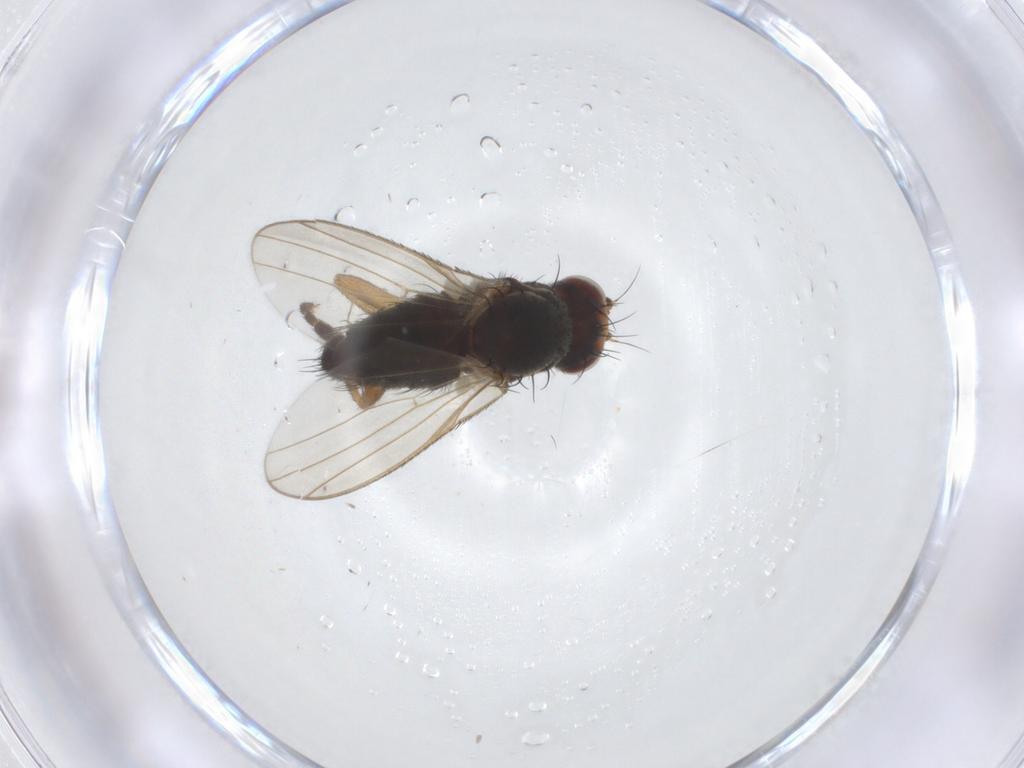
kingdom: Animalia
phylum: Arthropoda
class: Insecta
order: Diptera
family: Heleomyzidae
